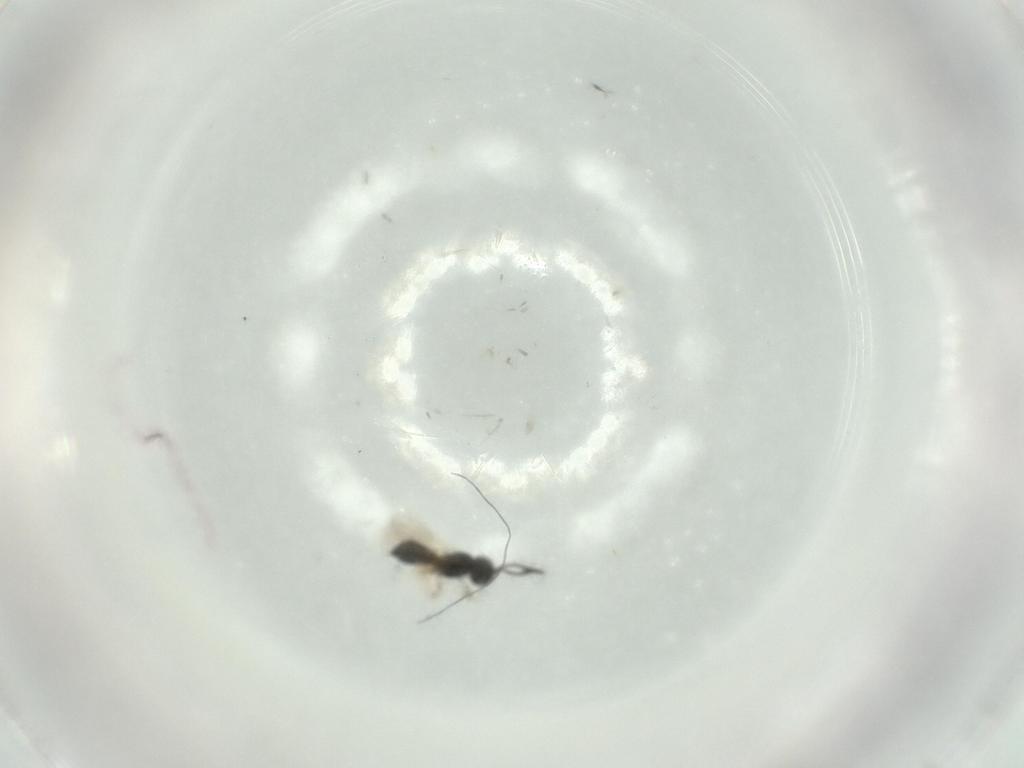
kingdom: Animalia
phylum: Arthropoda
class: Insecta
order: Hymenoptera
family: Scelionidae
